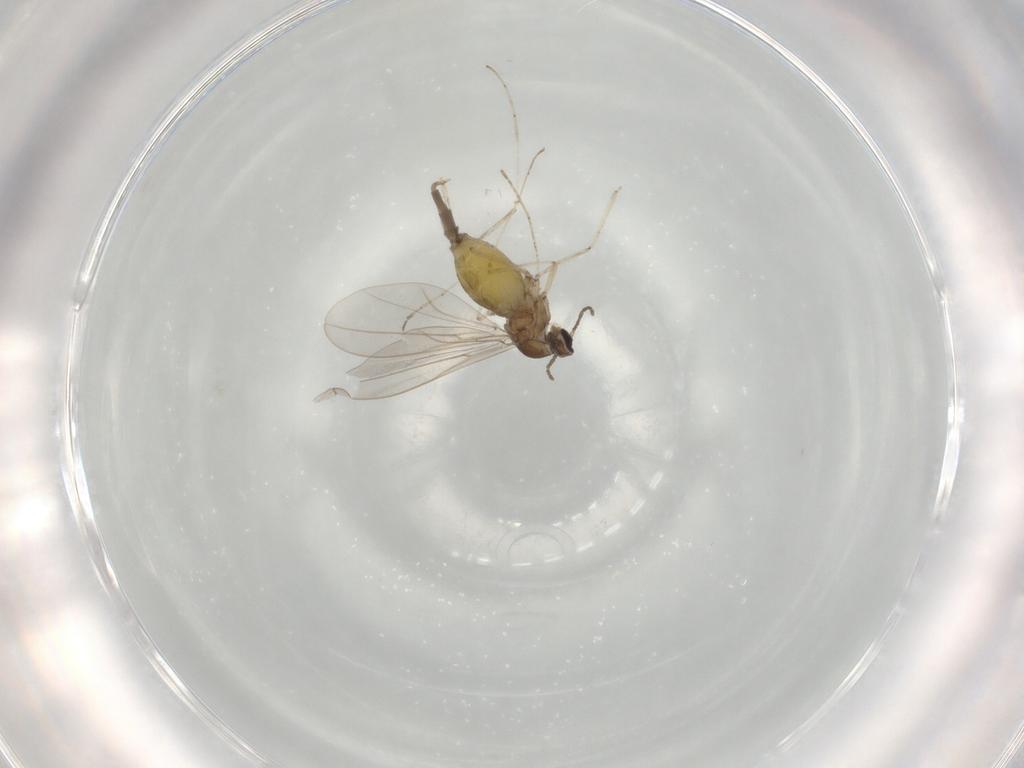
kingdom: Animalia
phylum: Arthropoda
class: Insecta
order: Diptera
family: Cecidomyiidae
